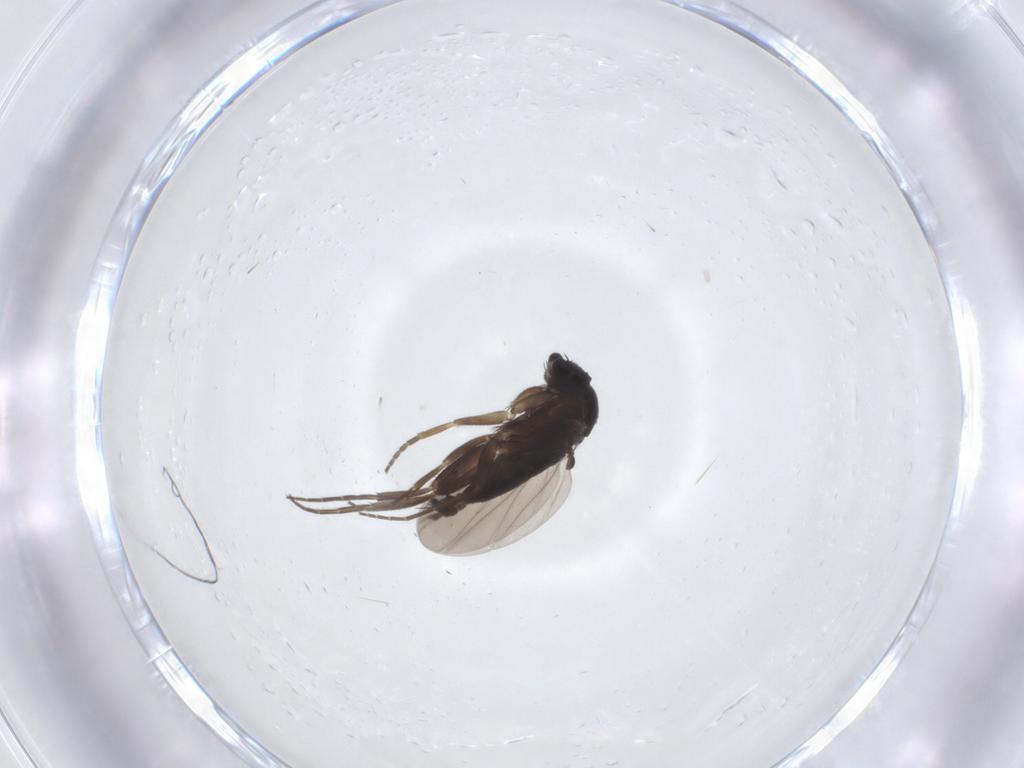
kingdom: Animalia
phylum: Arthropoda
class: Insecta
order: Diptera
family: Phoridae
